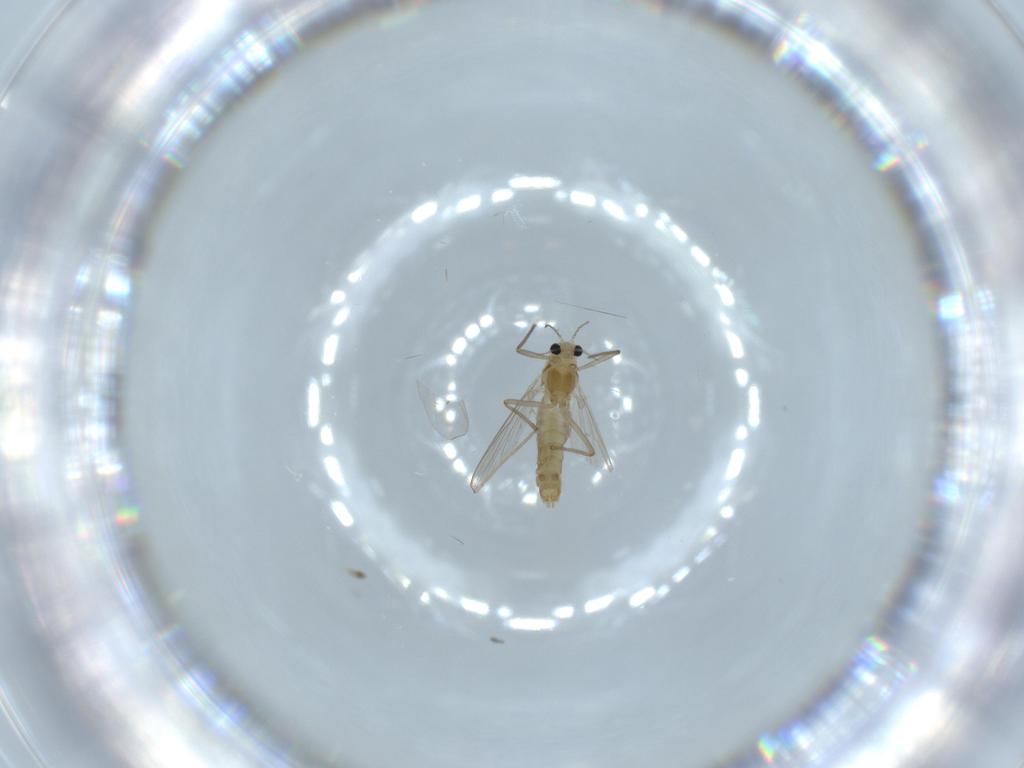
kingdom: Animalia
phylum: Arthropoda
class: Insecta
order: Diptera
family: Chironomidae
